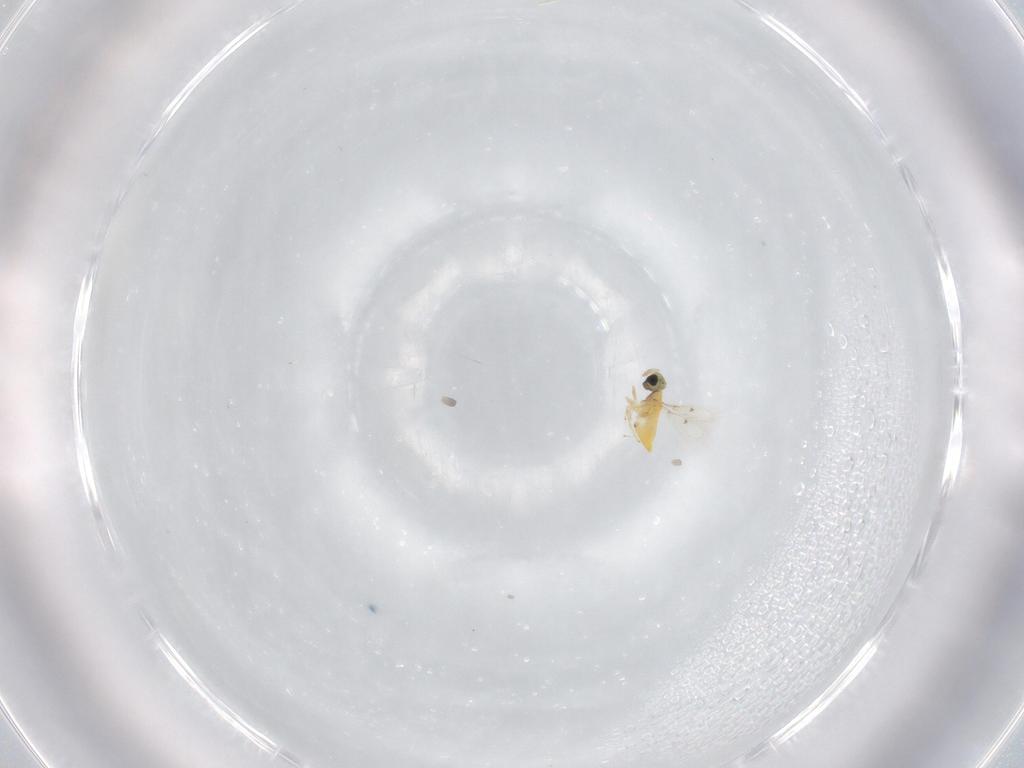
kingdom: Animalia
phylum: Arthropoda
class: Insecta
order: Hymenoptera
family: Trichogrammatidae
